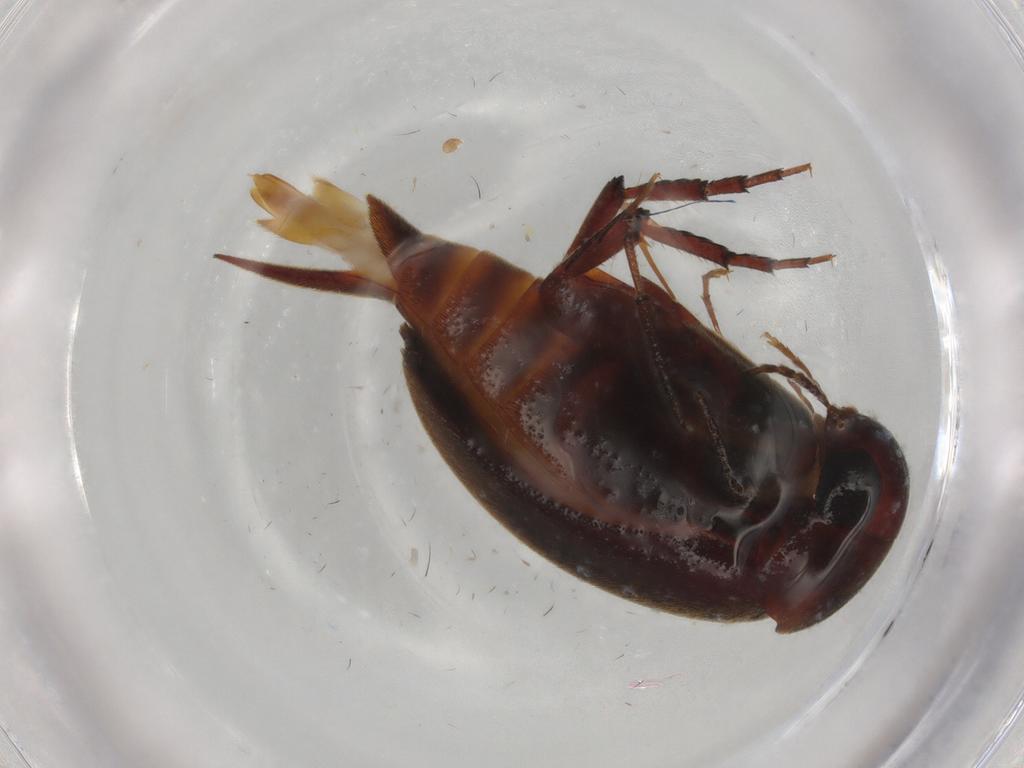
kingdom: Animalia
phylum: Arthropoda
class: Insecta
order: Coleoptera
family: Mordellidae
